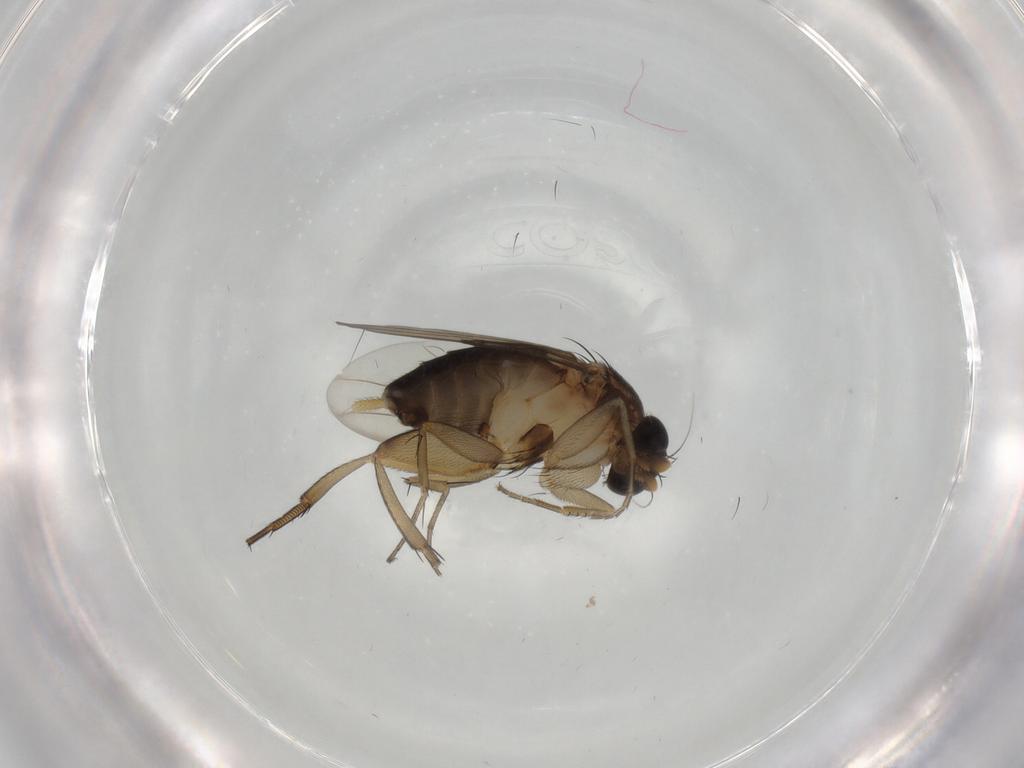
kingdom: Animalia
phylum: Arthropoda
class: Insecta
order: Diptera
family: Phoridae
